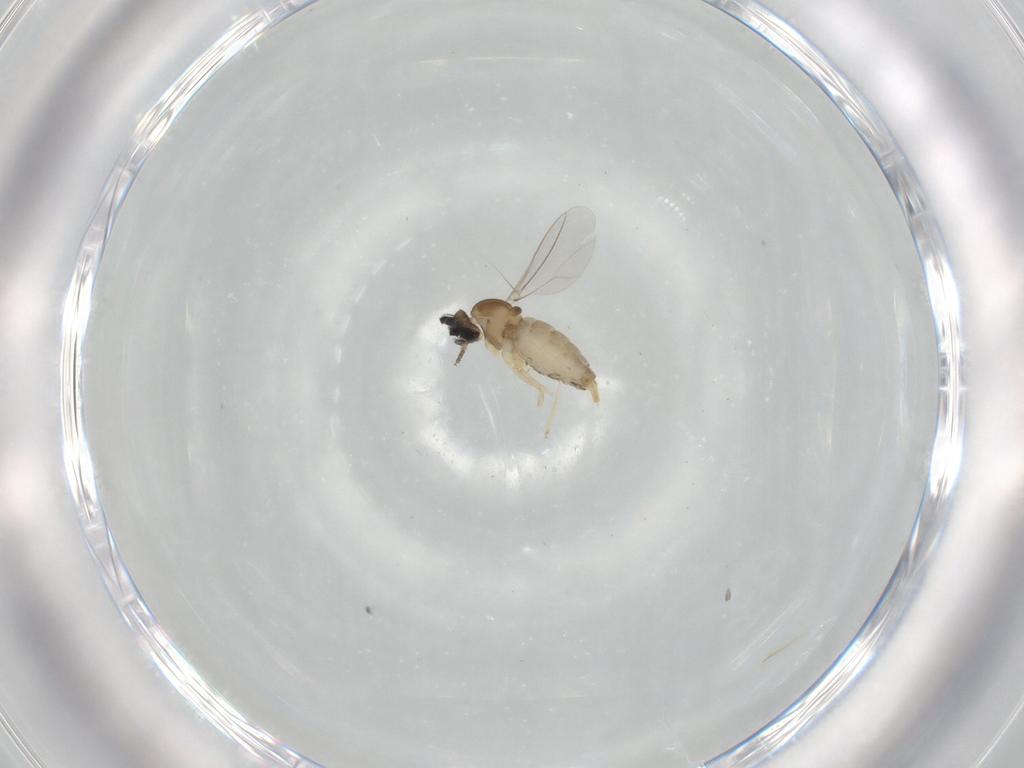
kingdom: Animalia
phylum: Arthropoda
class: Insecta
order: Diptera
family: Cecidomyiidae
